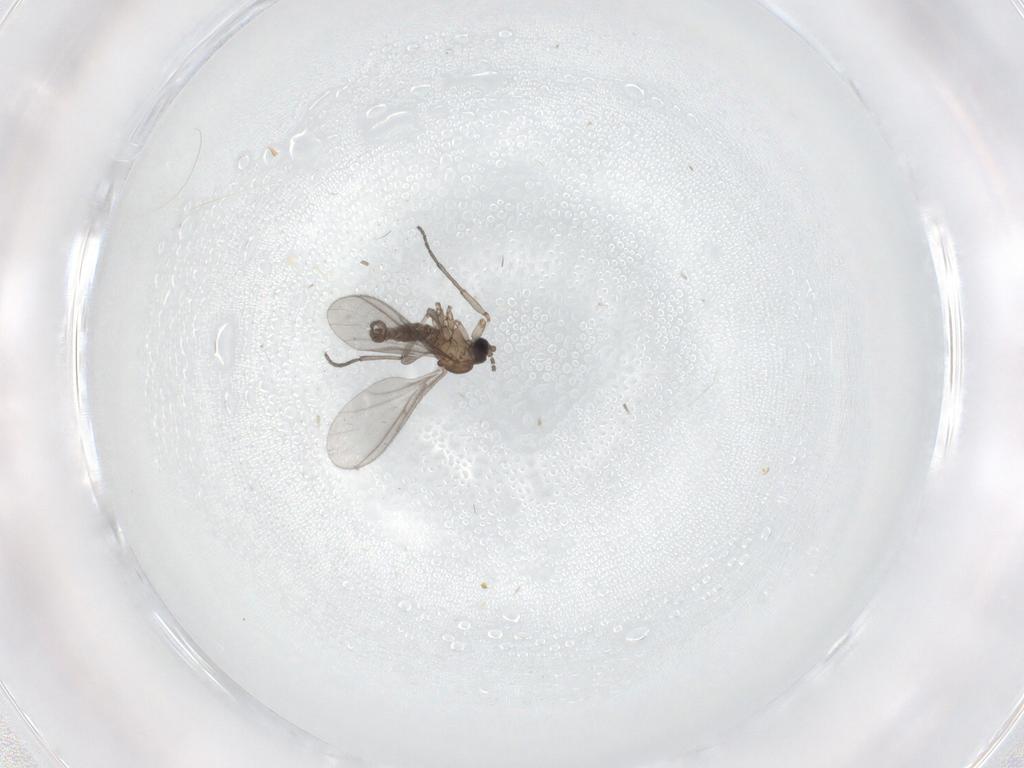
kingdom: Animalia
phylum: Arthropoda
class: Insecta
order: Diptera
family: Sciaridae
